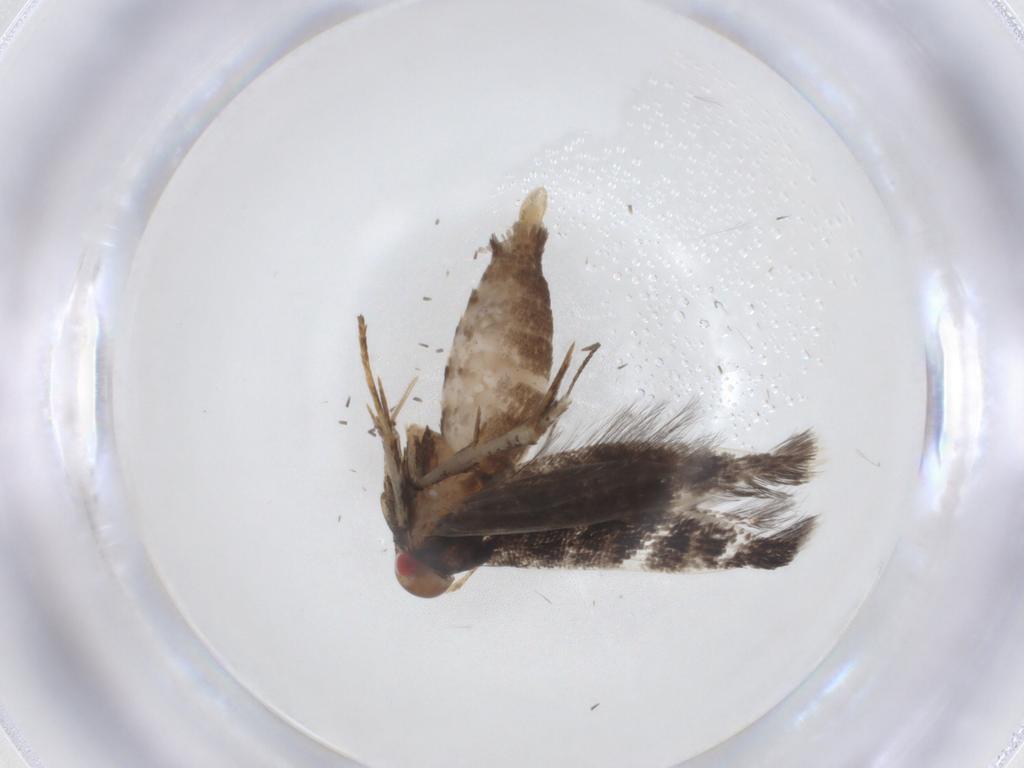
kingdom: Animalia
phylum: Arthropoda
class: Insecta
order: Lepidoptera
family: Gelechiidae
